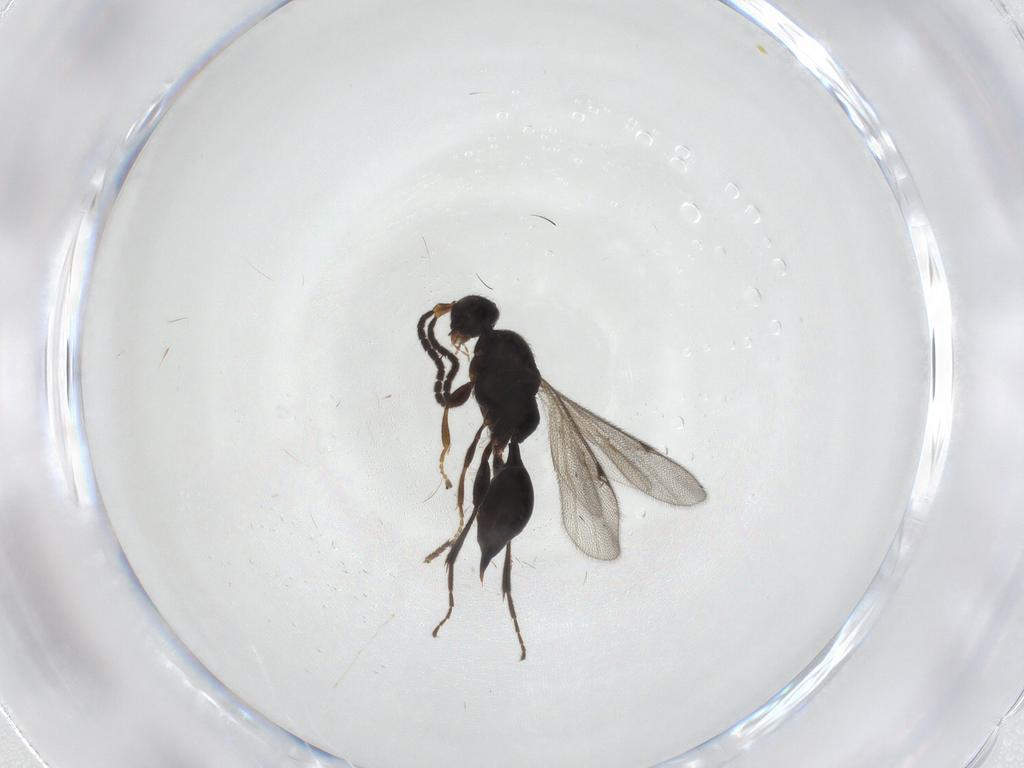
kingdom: Animalia
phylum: Arthropoda
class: Insecta
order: Hymenoptera
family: Proctotrupidae
